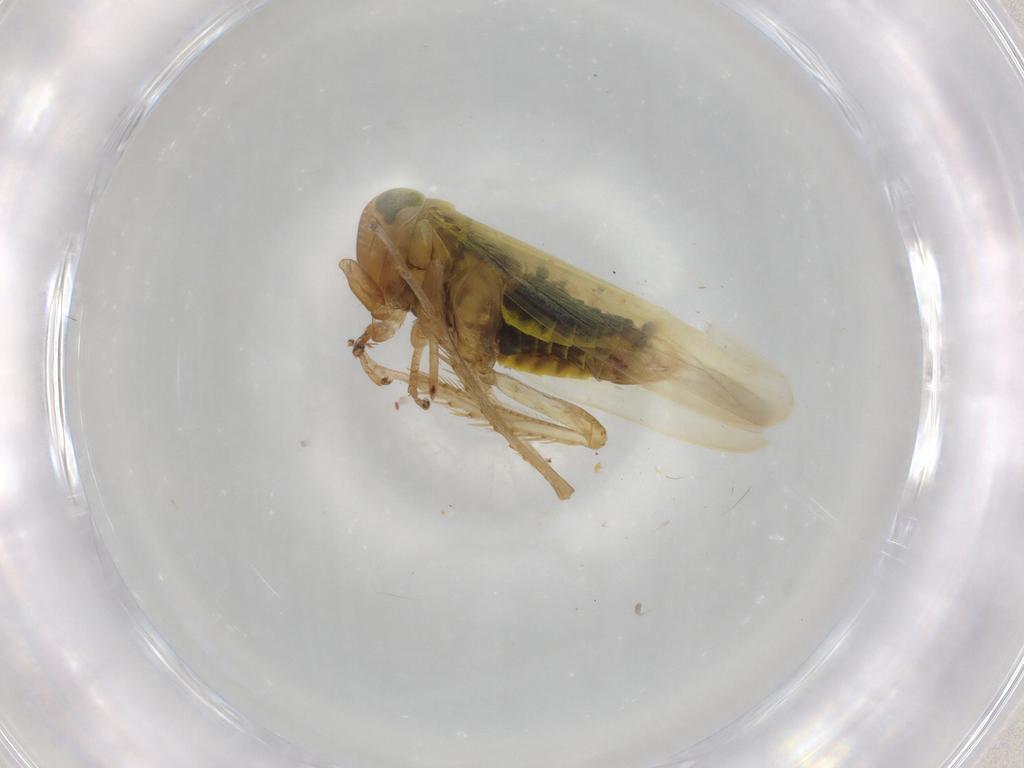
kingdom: Animalia
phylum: Arthropoda
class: Insecta
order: Hemiptera
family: Cicadellidae
